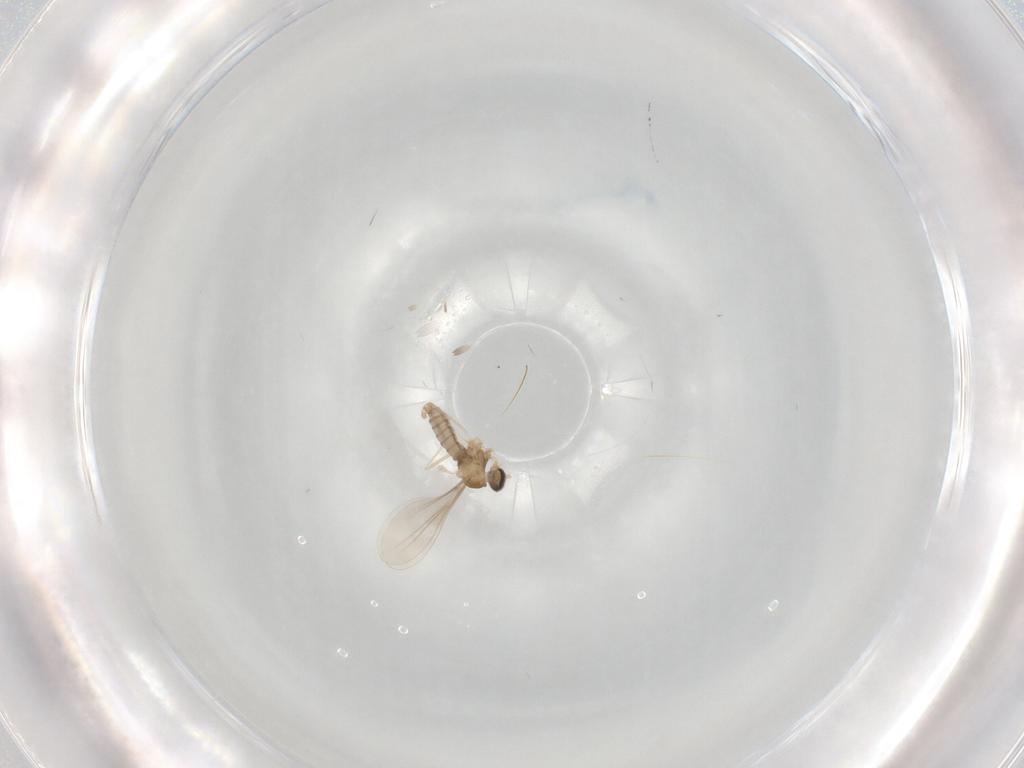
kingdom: Animalia
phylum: Arthropoda
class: Insecta
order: Diptera
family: Cecidomyiidae
